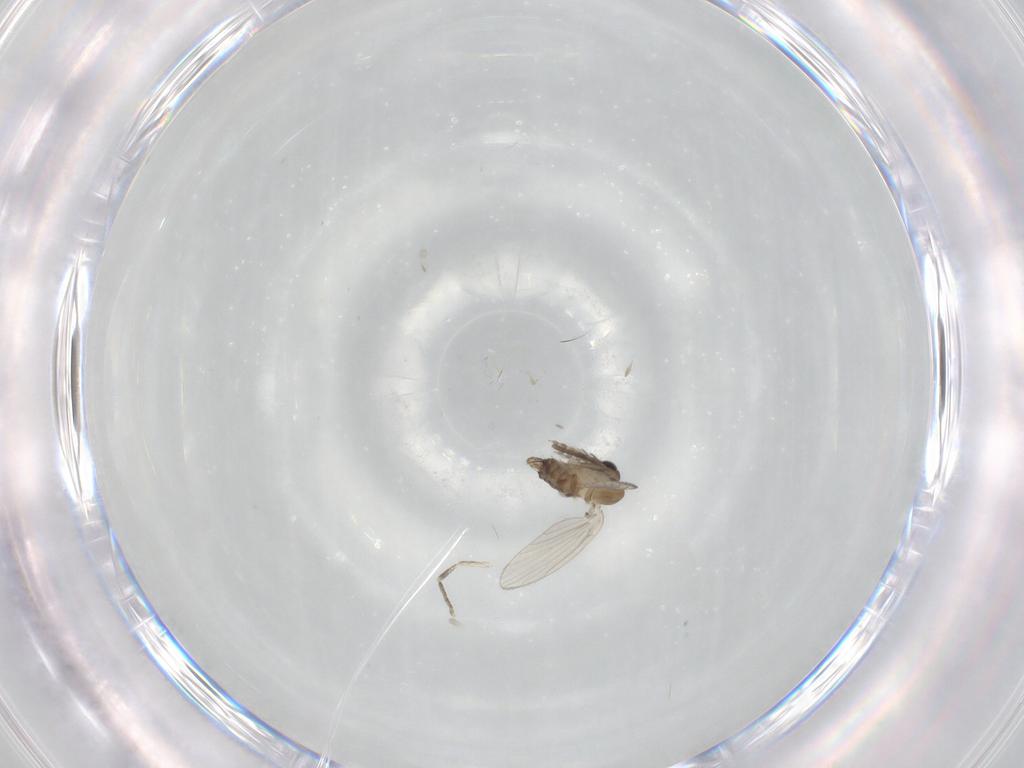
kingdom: Animalia
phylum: Arthropoda
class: Insecta
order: Diptera
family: Psychodidae
